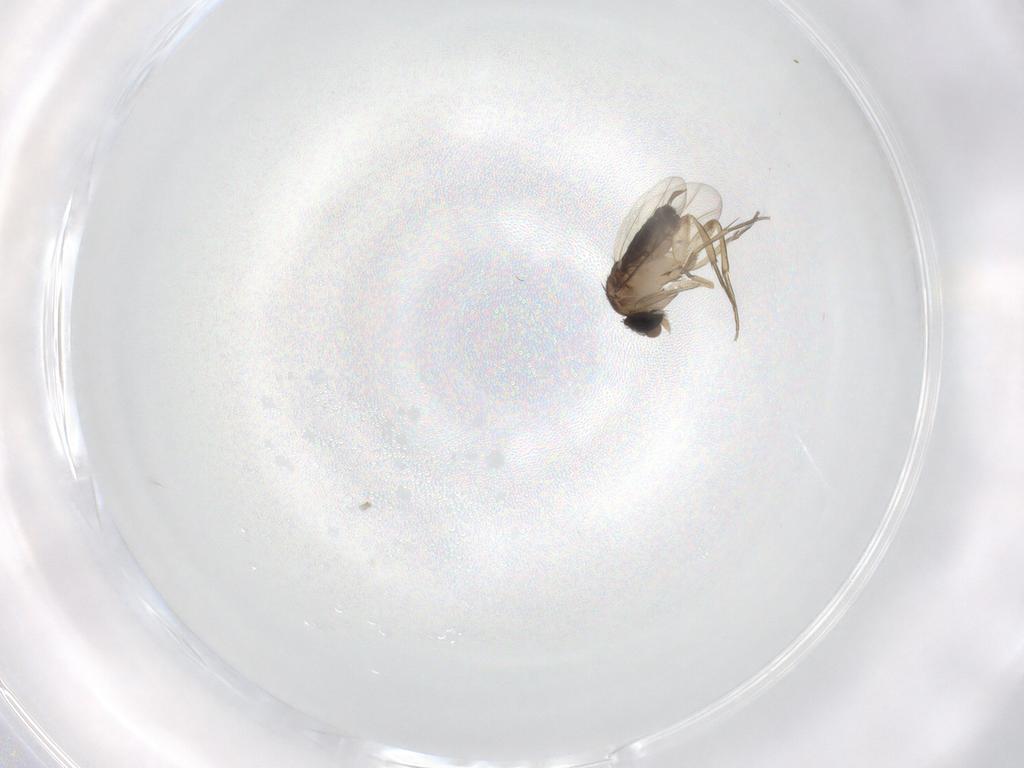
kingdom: Animalia
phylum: Arthropoda
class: Insecta
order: Diptera
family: Cecidomyiidae
